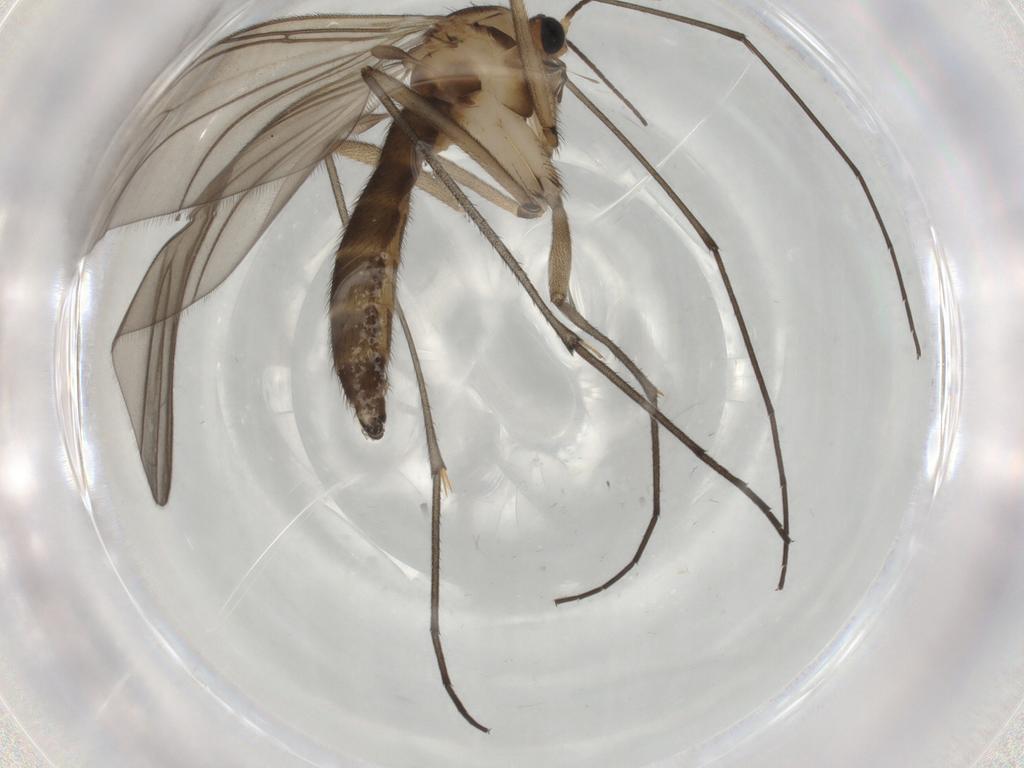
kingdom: Animalia
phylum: Arthropoda
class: Insecta
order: Diptera
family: Sciaridae
